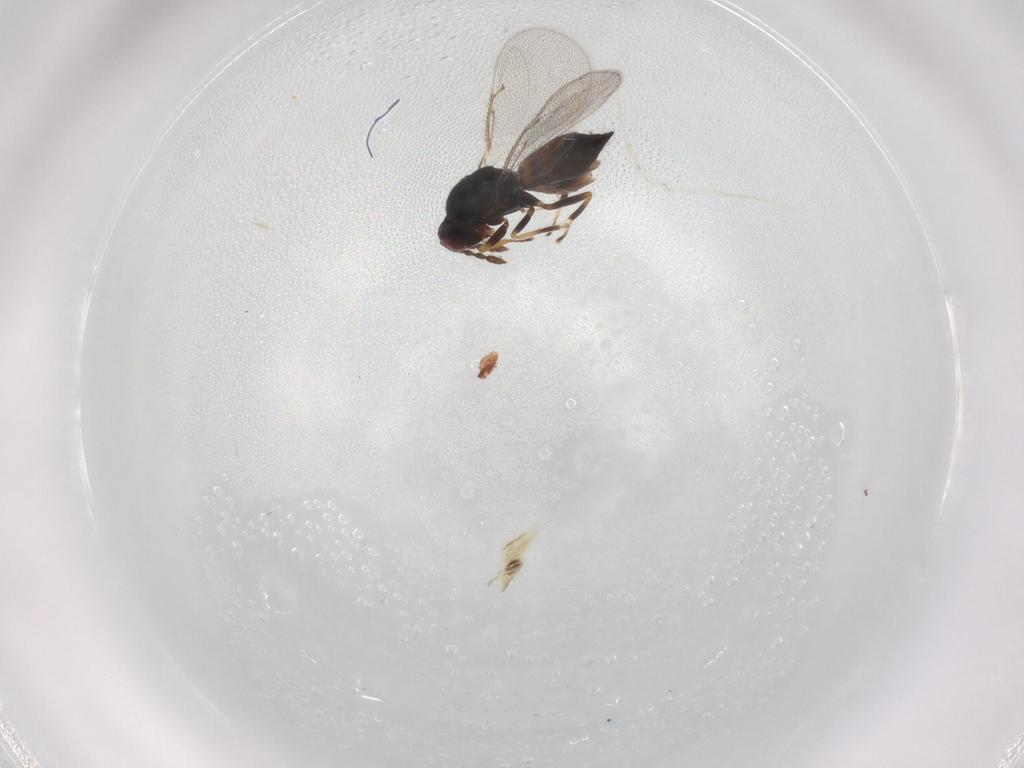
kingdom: Animalia
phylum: Arthropoda
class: Insecta
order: Hymenoptera
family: Eulophidae
